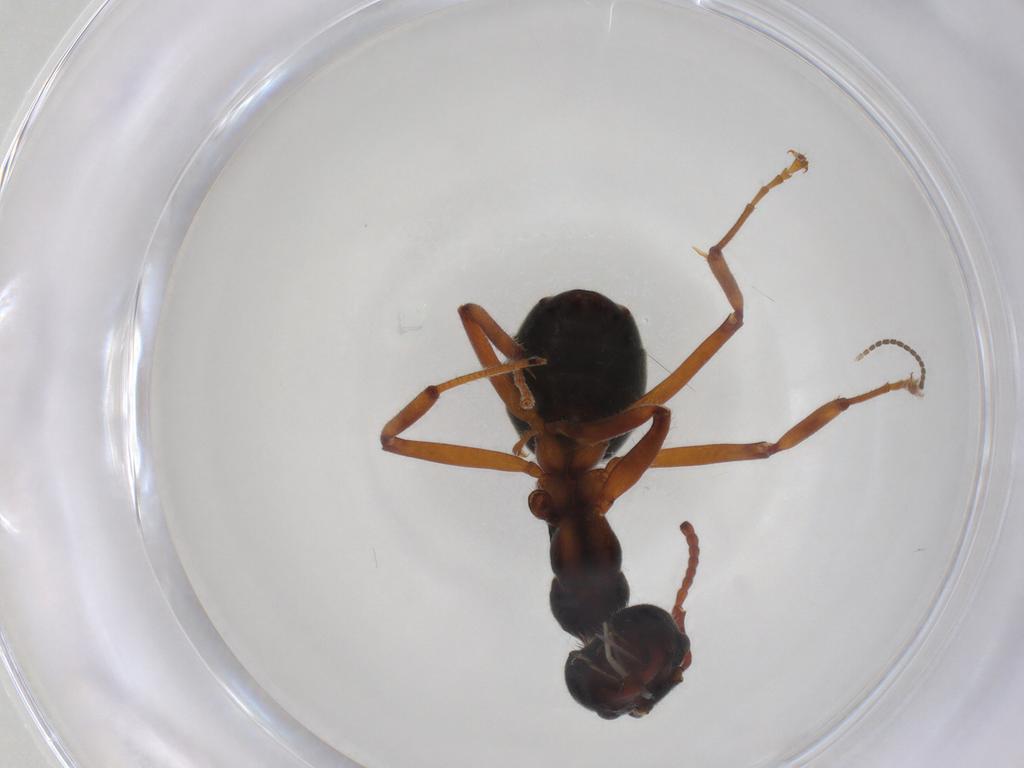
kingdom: Animalia
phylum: Arthropoda
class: Insecta
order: Hymenoptera
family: Formicidae
